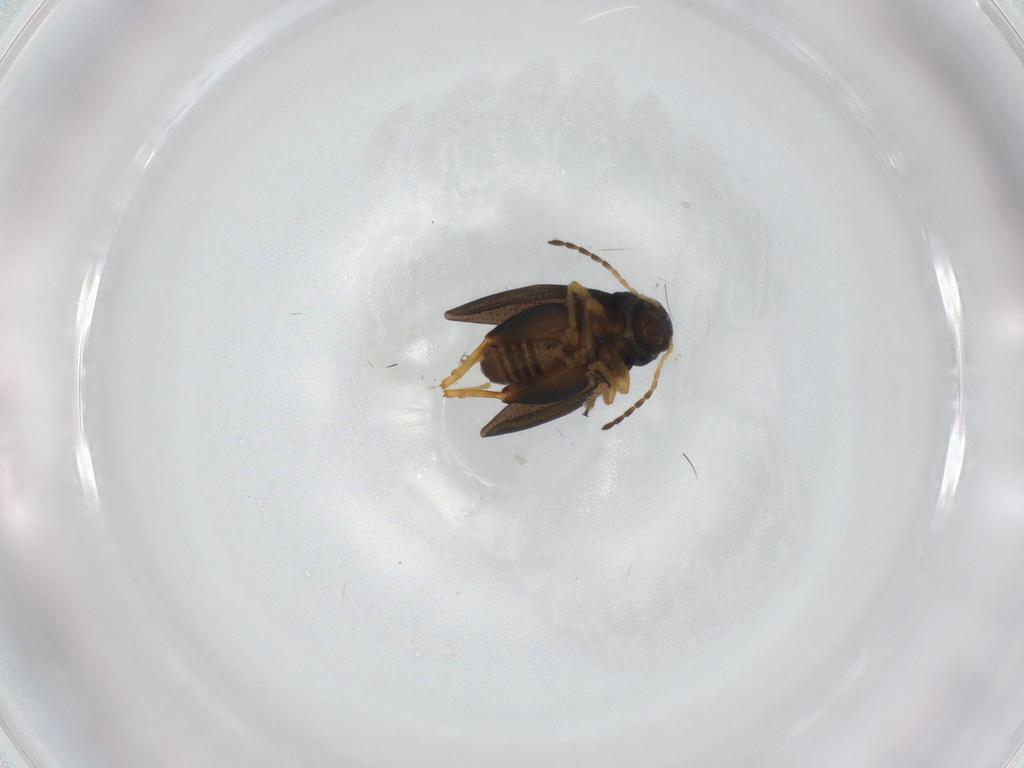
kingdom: Animalia
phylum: Arthropoda
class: Insecta
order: Coleoptera
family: Chrysomelidae
